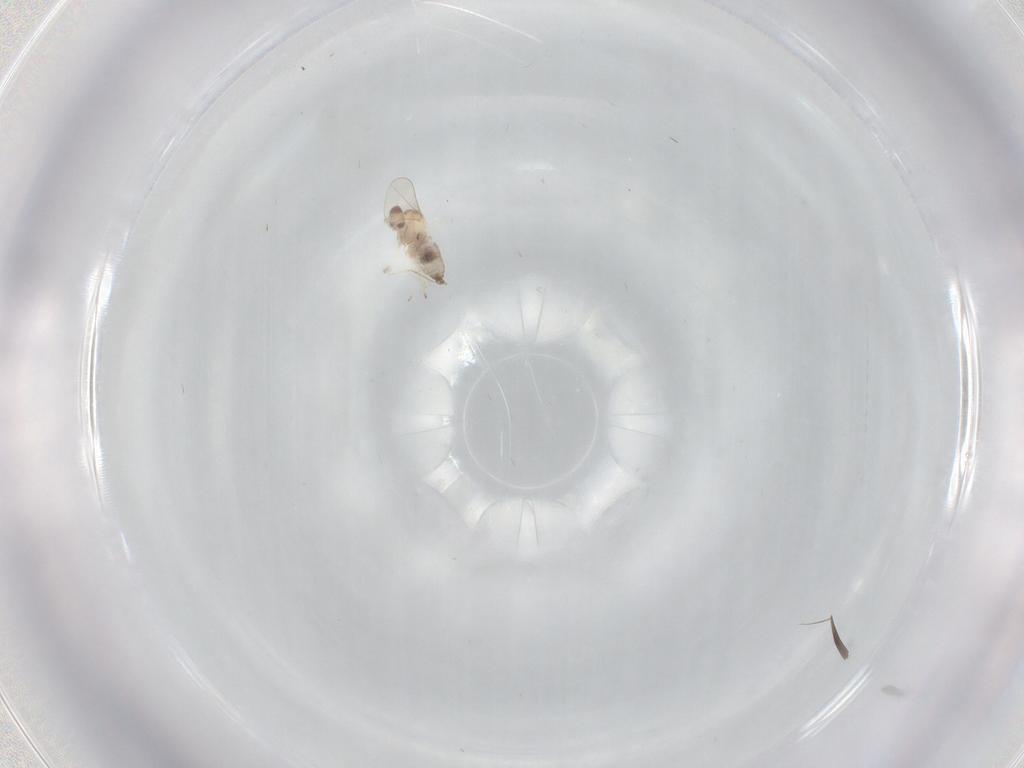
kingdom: Animalia
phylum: Arthropoda
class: Insecta
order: Diptera
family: Cecidomyiidae
